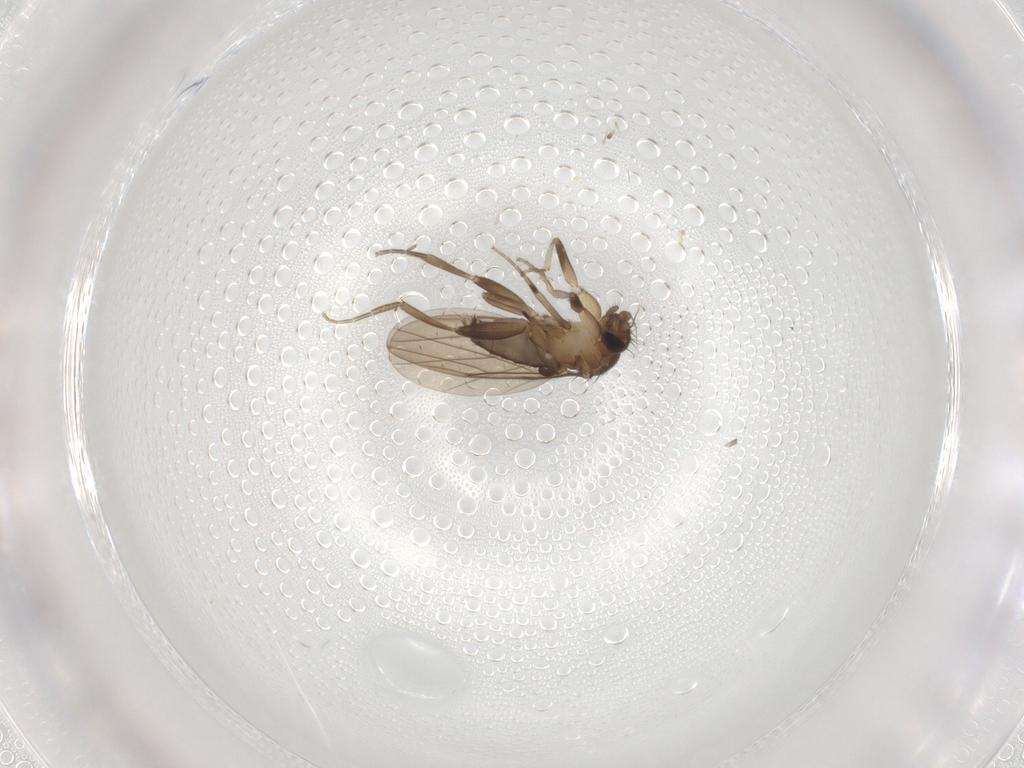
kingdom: Animalia
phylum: Arthropoda
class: Insecta
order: Diptera
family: Phoridae
